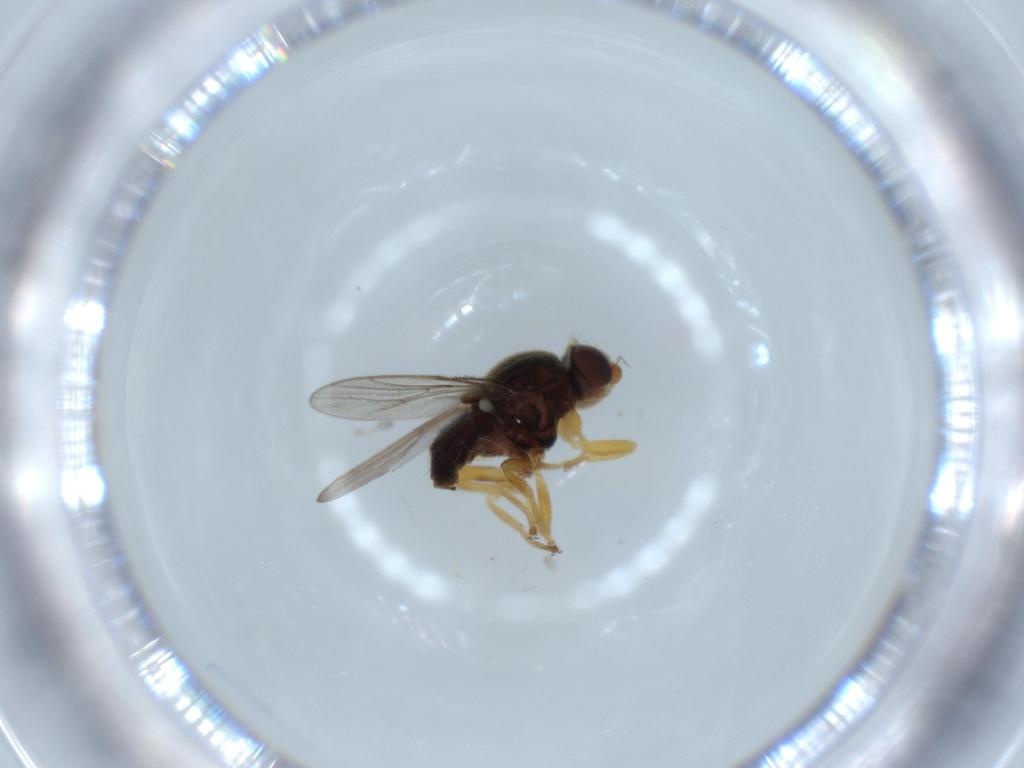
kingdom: Animalia
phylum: Arthropoda
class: Insecta
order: Diptera
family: Chloropidae
